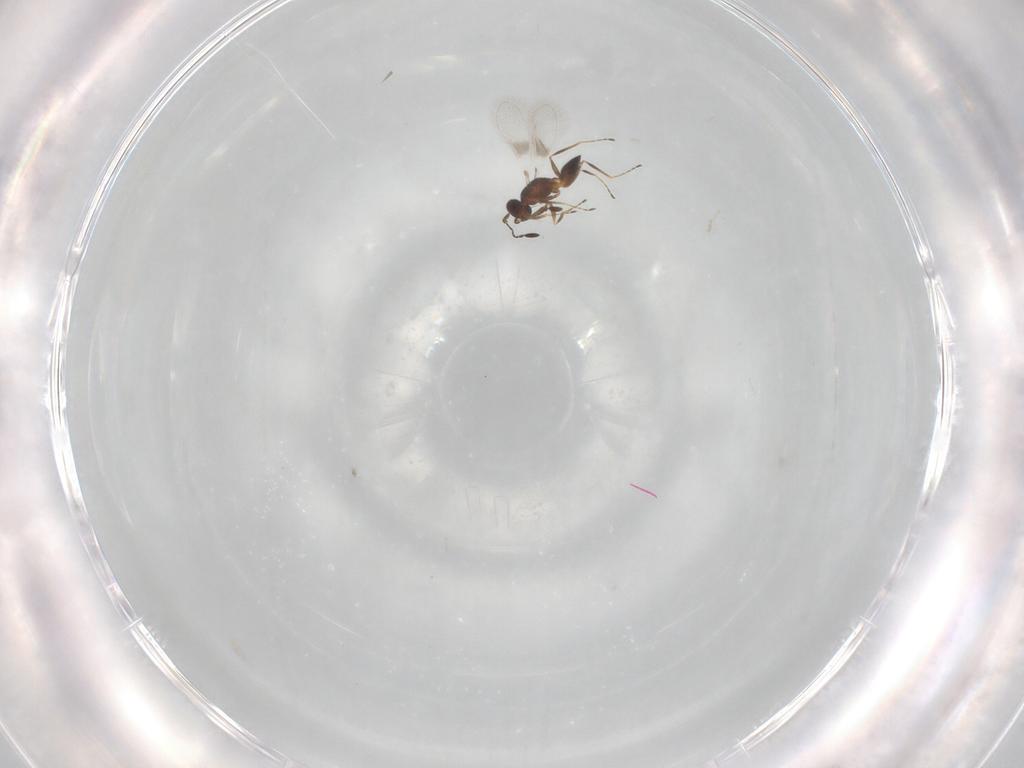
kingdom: Animalia
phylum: Arthropoda
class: Insecta
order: Hymenoptera
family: Mymaridae
